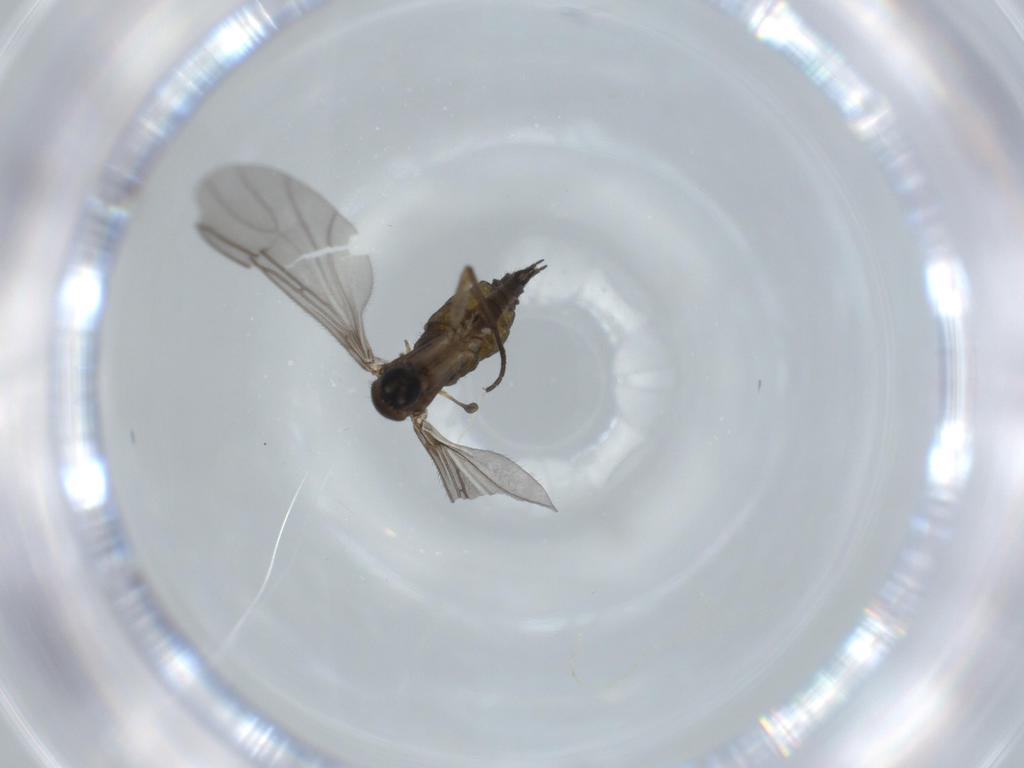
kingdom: Animalia
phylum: Arthropoda
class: Insecta
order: Diptera
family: Sciaridae
